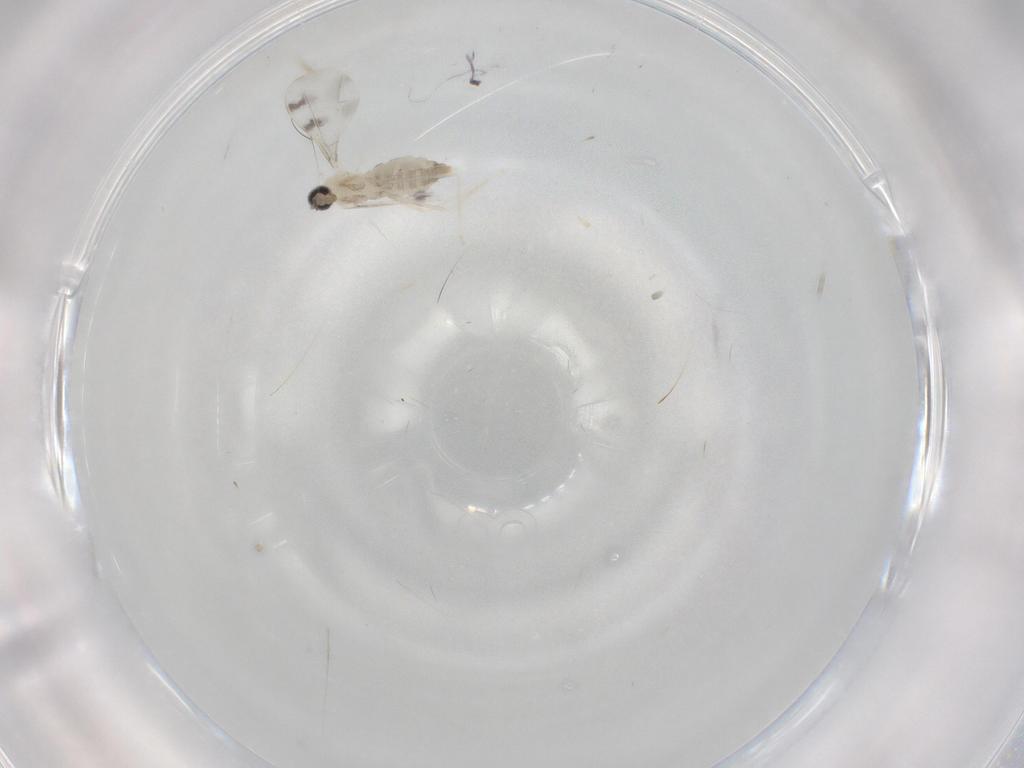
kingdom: Animalia
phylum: Arthropoda
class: Insecta
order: Diptera
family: Cecidomyiidae
